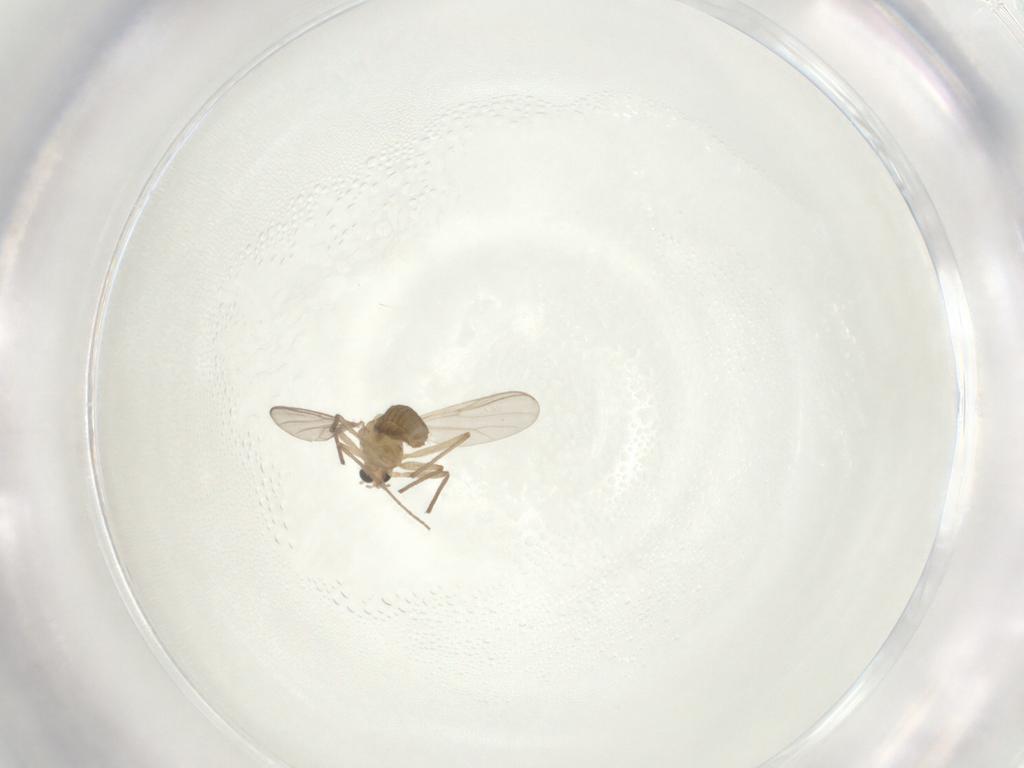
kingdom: Animalia
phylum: Arthropoda
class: Insecta
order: Diptera
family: Chironomidae
